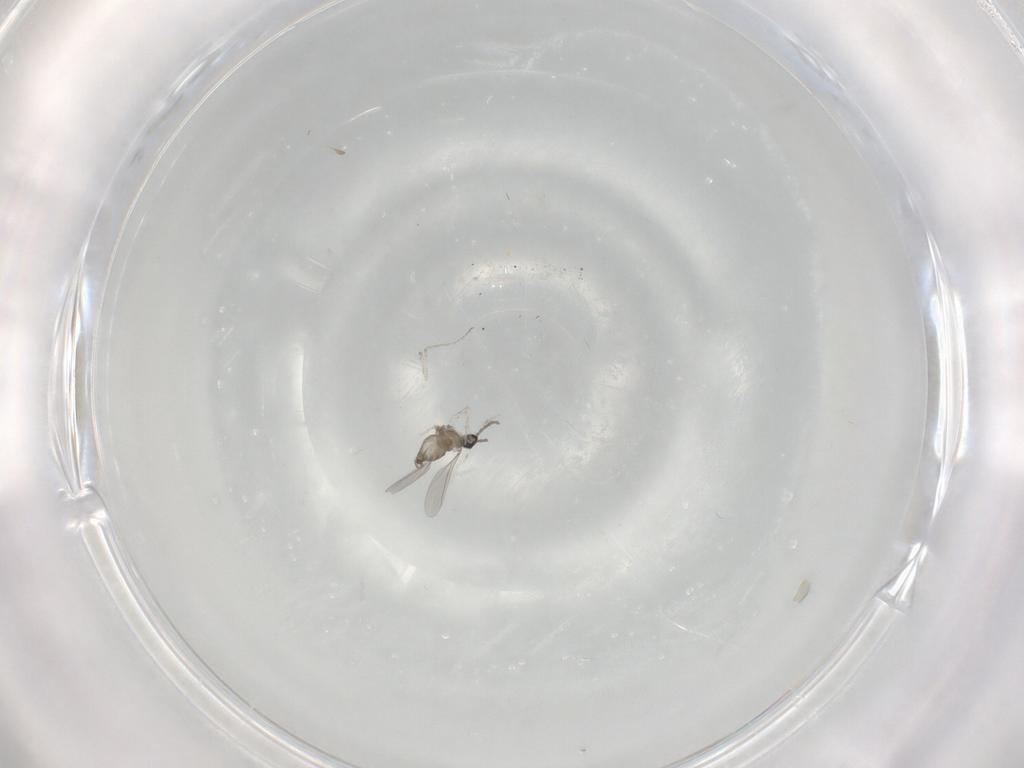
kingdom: Animalia
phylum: Arthropoda
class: Insecta
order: Diptera
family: Cecidomyiidae
